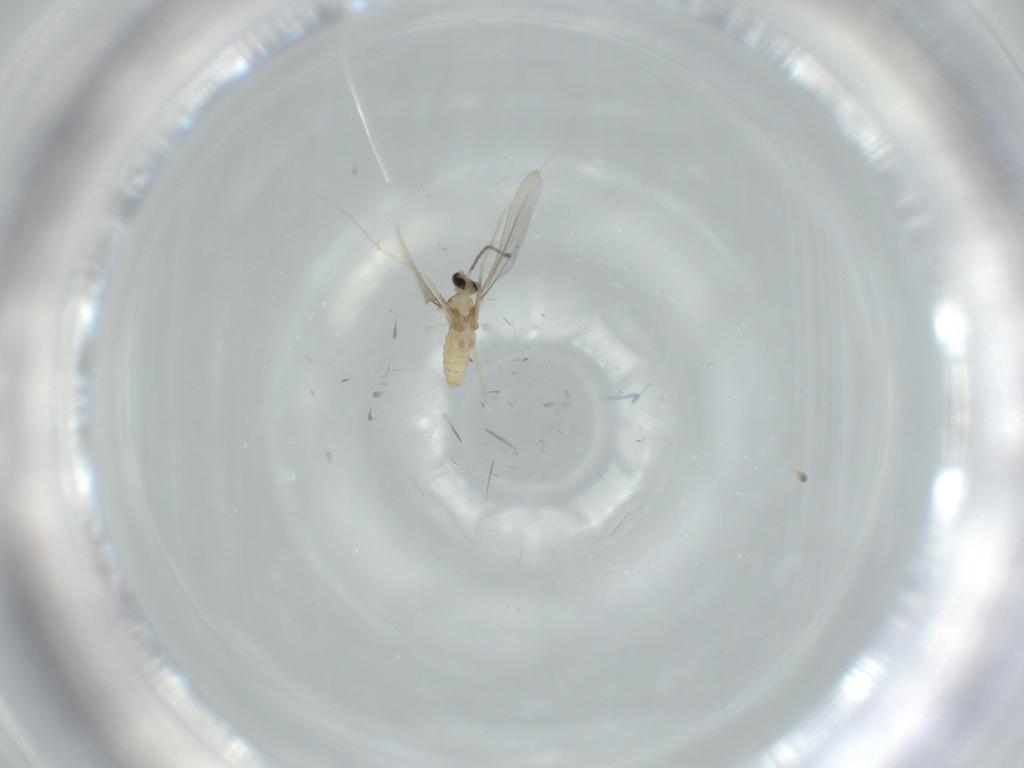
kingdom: Animalia
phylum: Arthropoda
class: Insecta
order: Diptera
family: Cecidomyiidae
